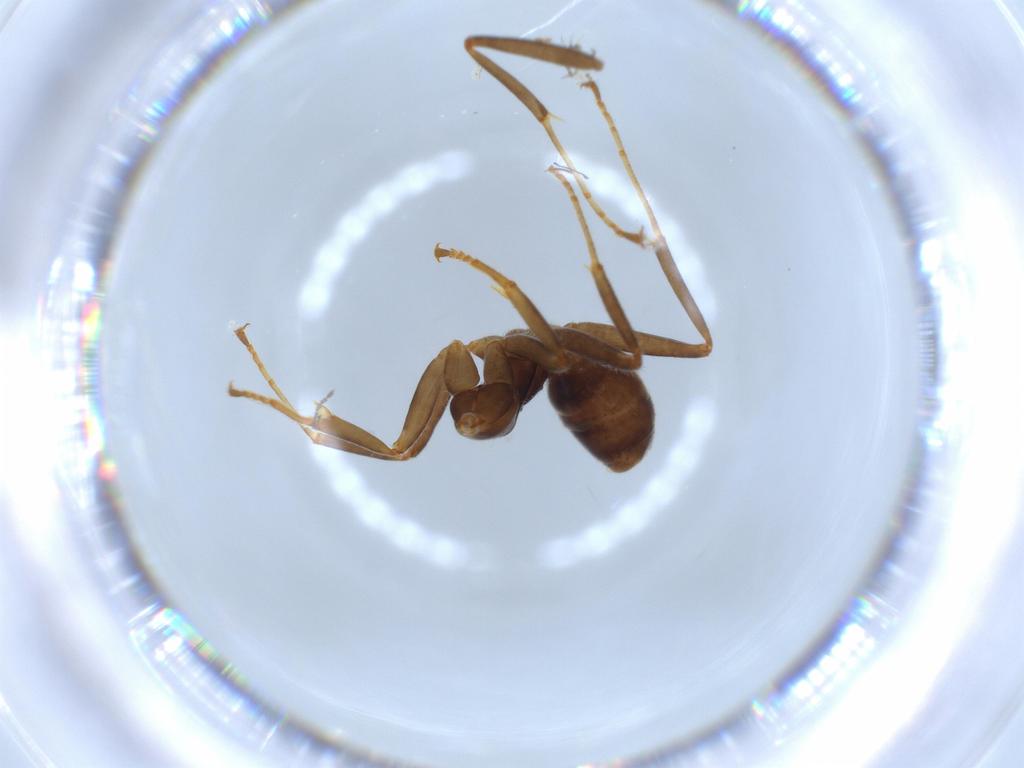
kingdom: Animalia
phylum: Arthropoda
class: Insecta
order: Hymenoptera
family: Formicidae
